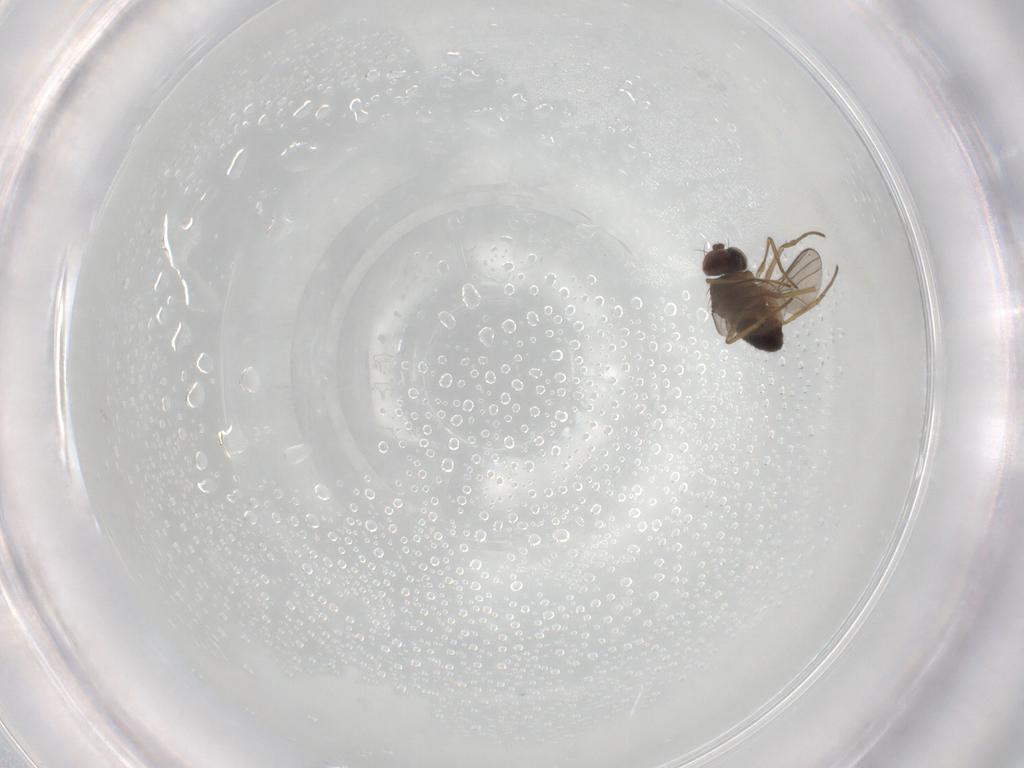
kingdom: Animalia
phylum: Arthropoda
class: Insecta
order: Diptera
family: Dolichopodidae
